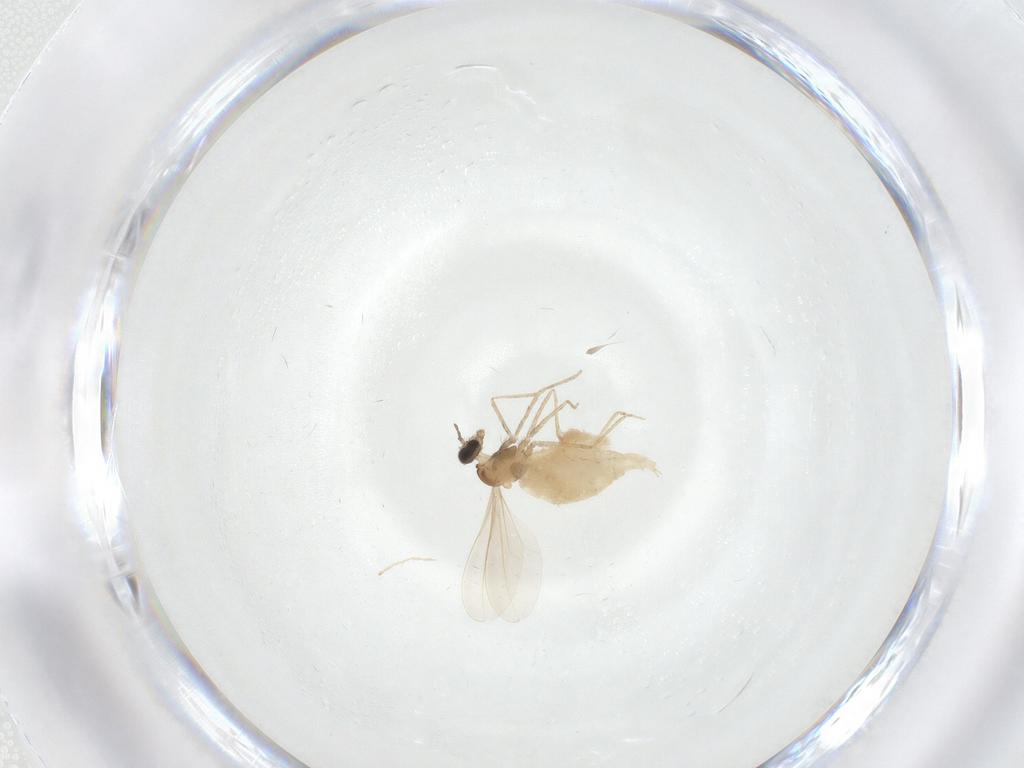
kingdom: Animalia
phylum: Arthropoda
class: Insecta
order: Diptera
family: Cecidomyiidae
